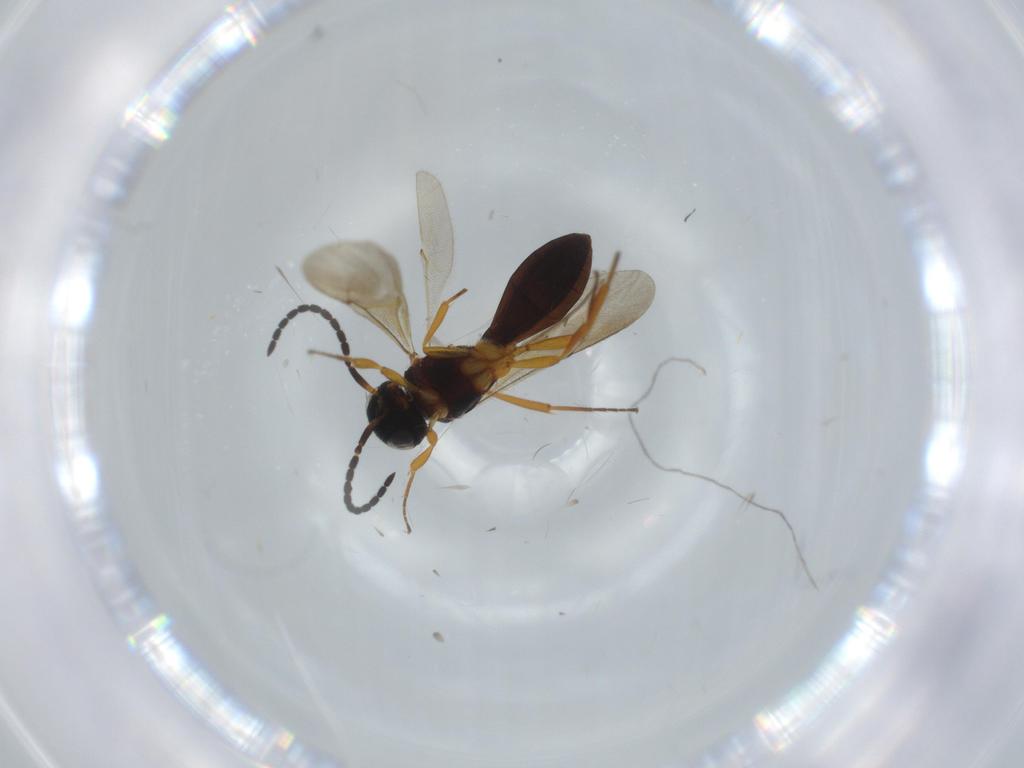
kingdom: Animalia
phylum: Arthropoda
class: Insecta
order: Hymenoptera
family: Scelionidae
